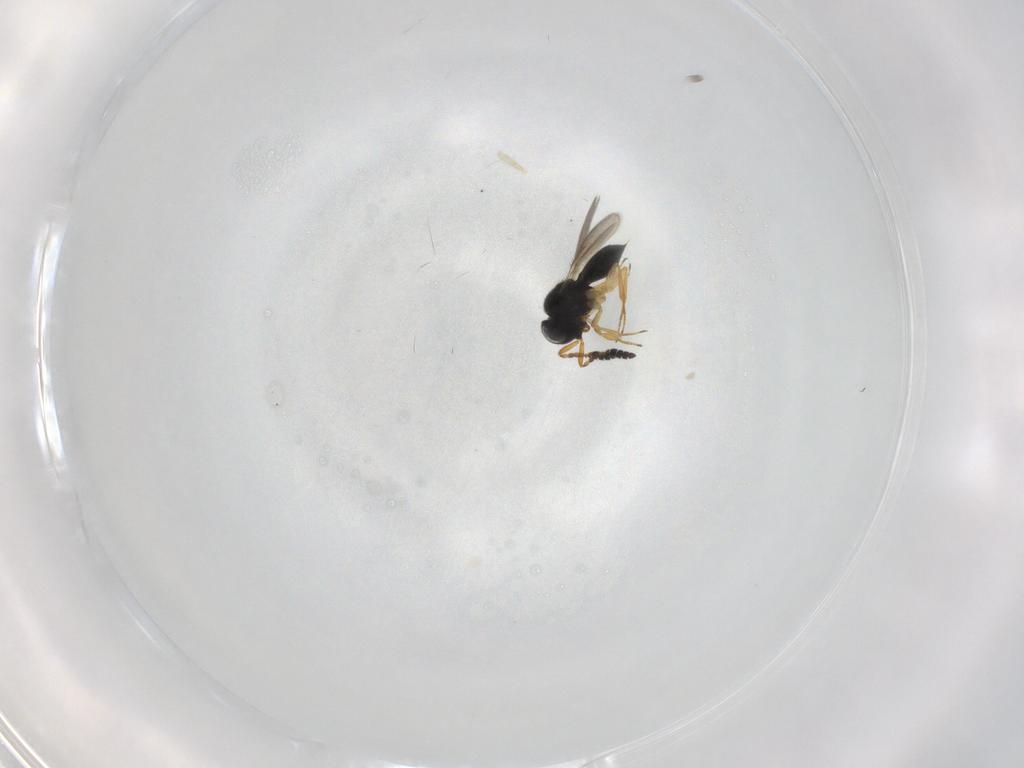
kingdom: Animalia
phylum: Arthropoda
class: Insecta
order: Hymenoptera
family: Scelionidae
